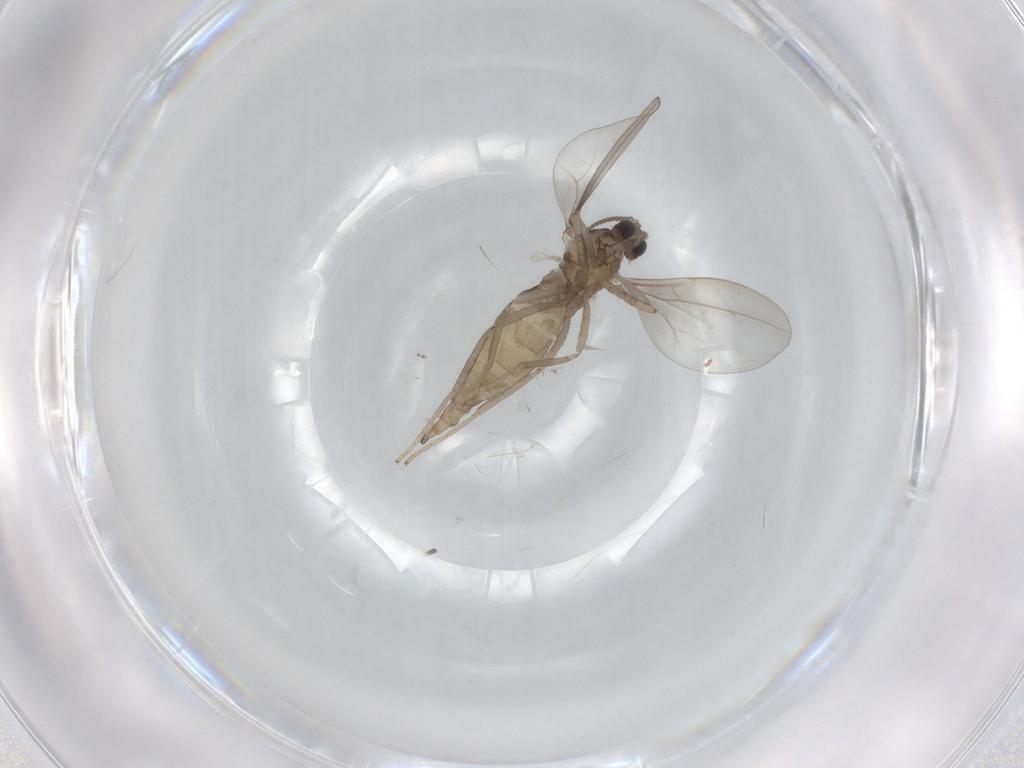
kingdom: Animalia
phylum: Arthropoda
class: Insecta
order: Diptera
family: Cecidomyiidae
